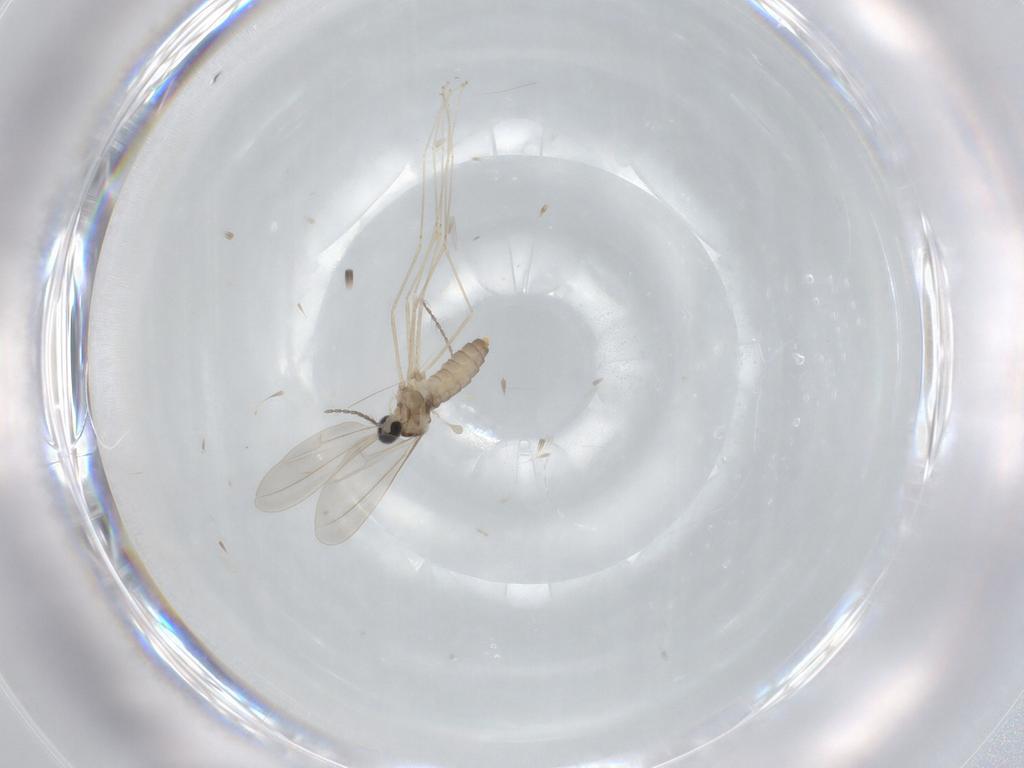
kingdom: Animalia
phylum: Arthropoda
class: Insecta
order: Diptera
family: Cecidomyiidae
